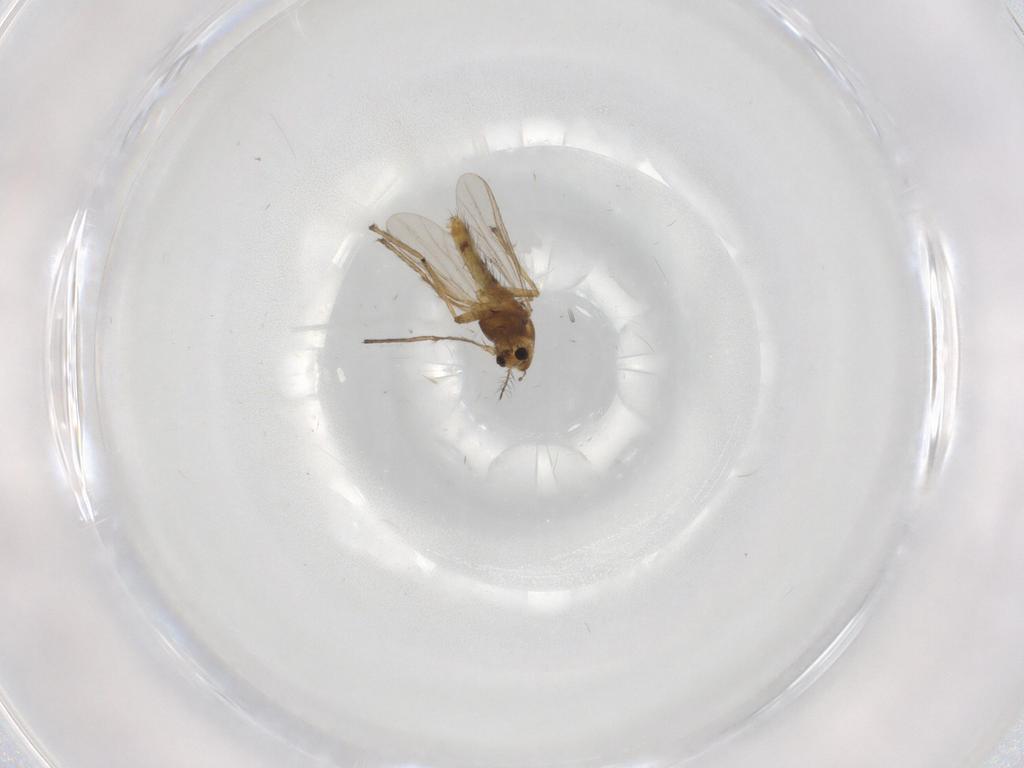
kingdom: Animalia
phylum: Arthropoda
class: Insecta
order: Diptera
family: Chironomidae
